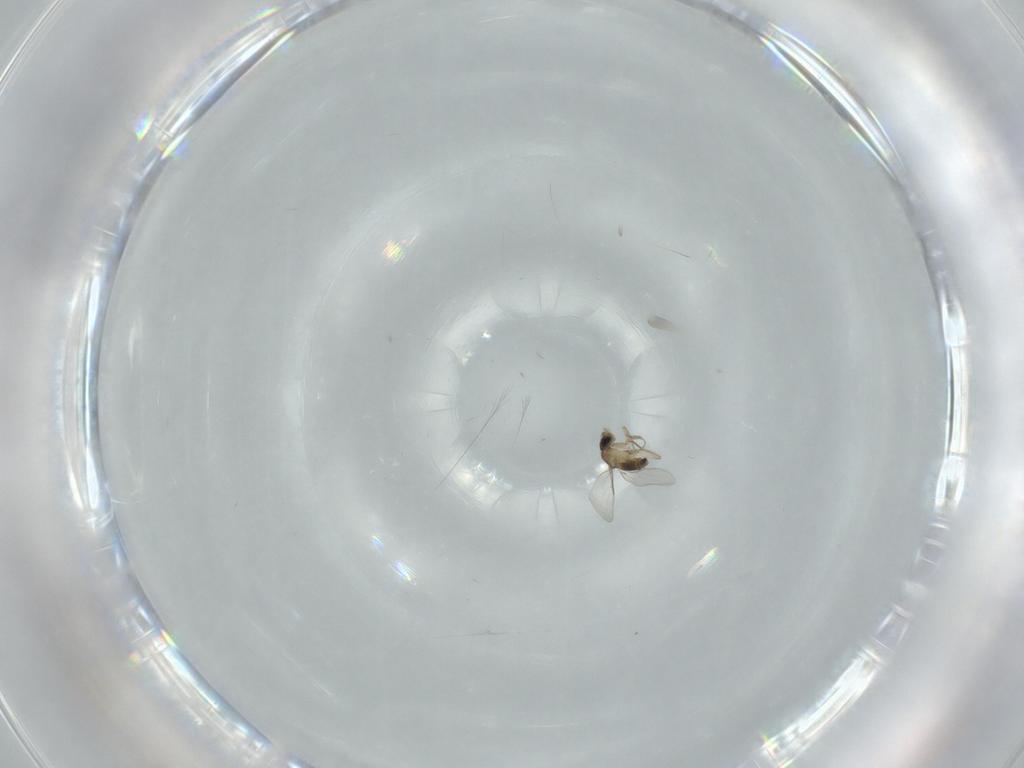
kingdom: Animalia
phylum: Arthropoda
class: Insecta
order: Diptera
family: Phoridae
